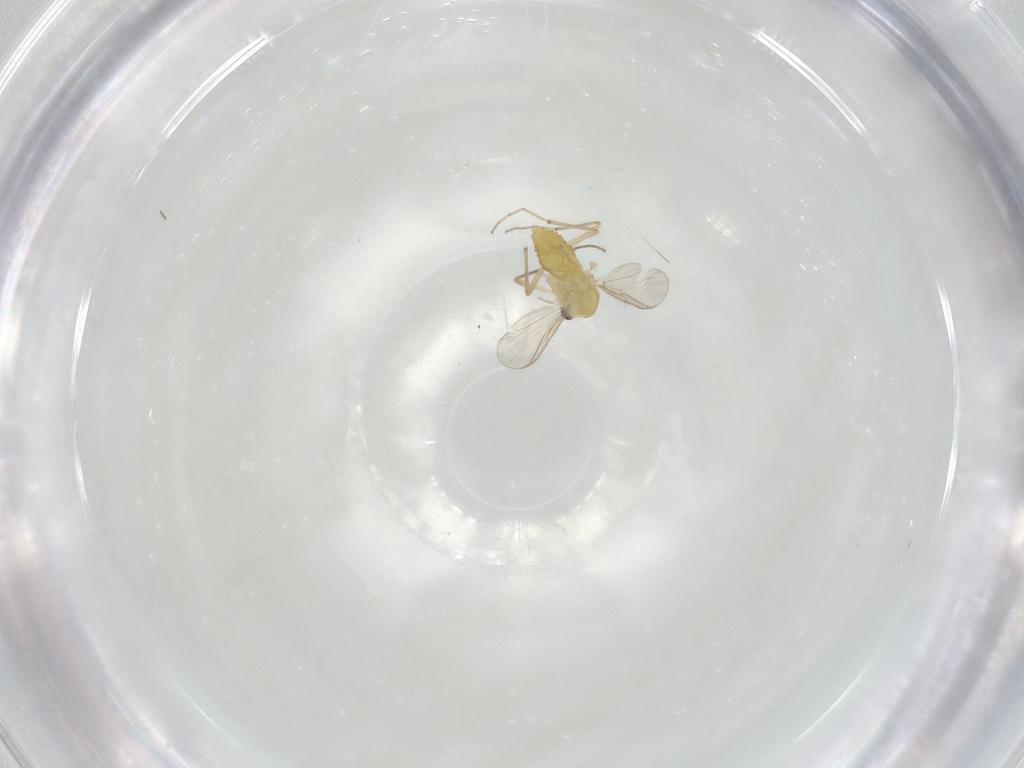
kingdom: Animalia
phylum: Arthropoda
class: Insecta
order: Diptera
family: Chironomidae
